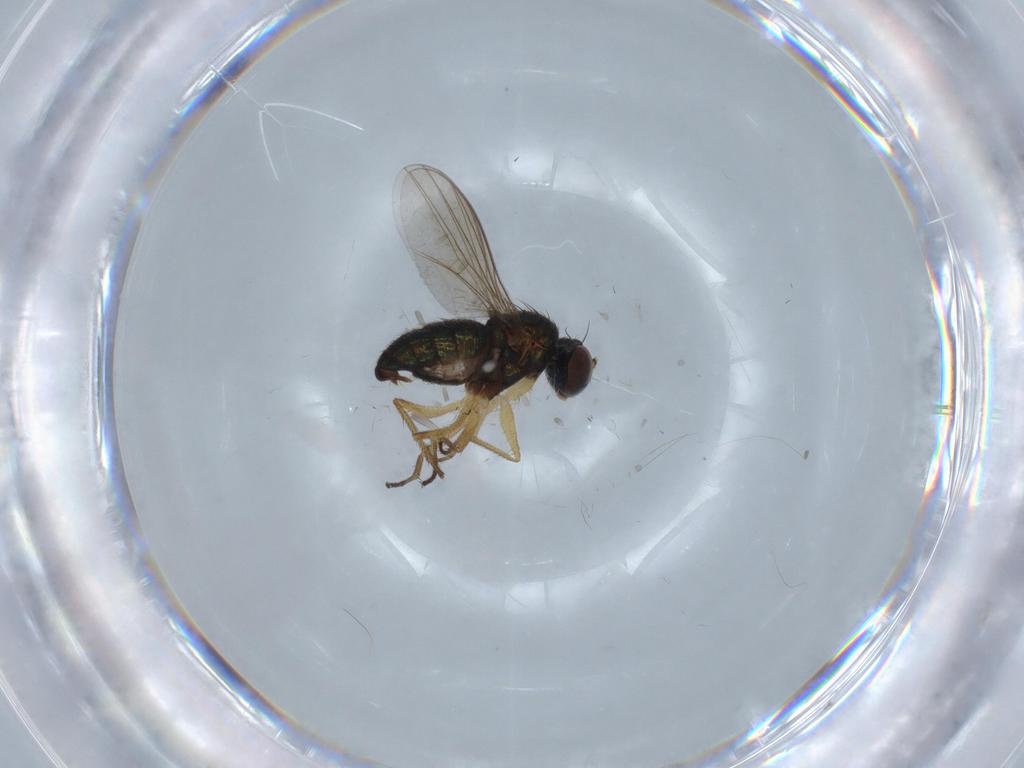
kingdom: Animalia
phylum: Arthropoda
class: Insecta
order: Diptera
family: Dolichopodidae
